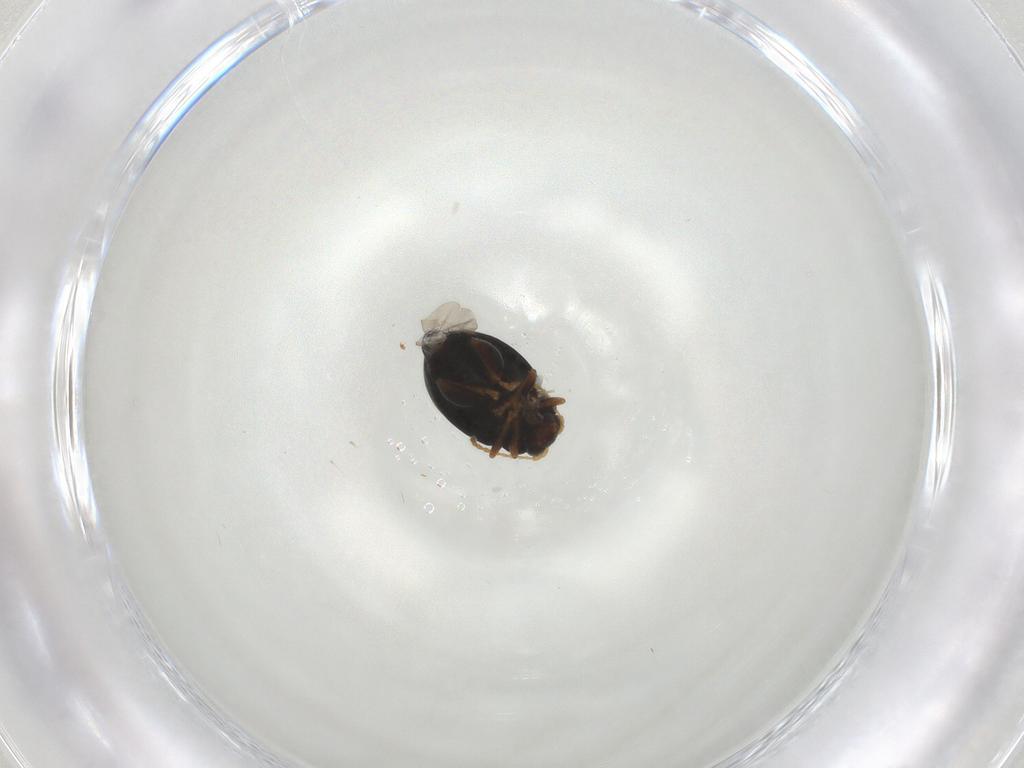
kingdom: Animalia
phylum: Arthropoda
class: Insecta
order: Coleoptera
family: Chrysomelidae
